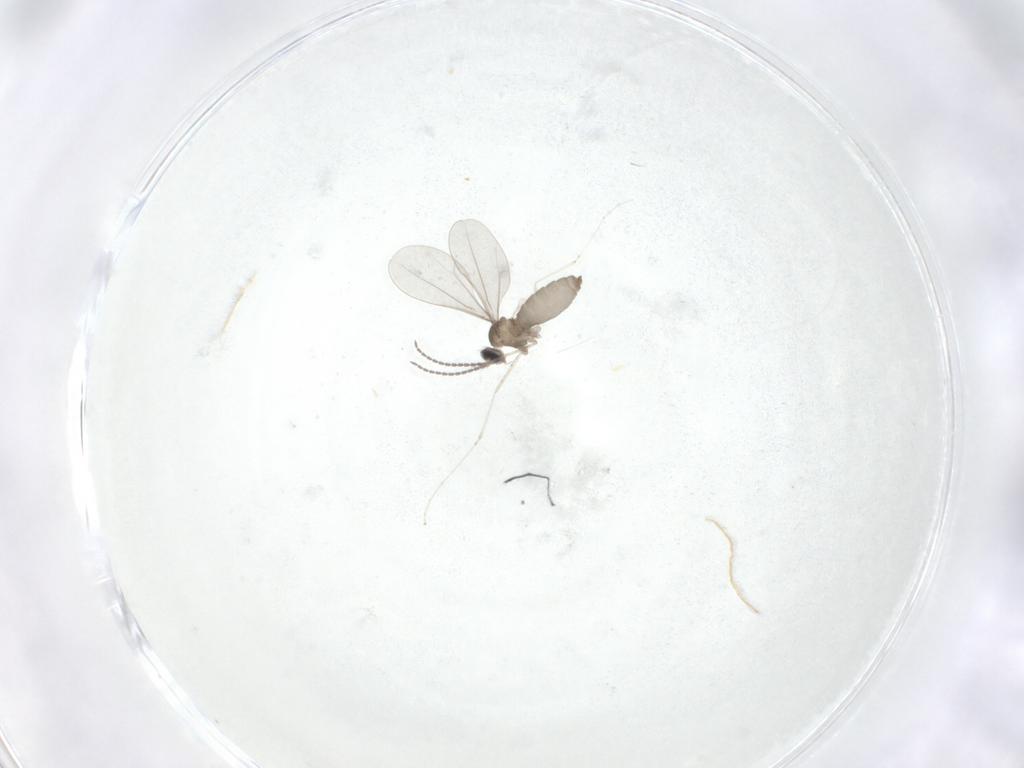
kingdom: Animalia
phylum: Arthropoda
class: Insecta
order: Diptera
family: Cecidomyiidae
